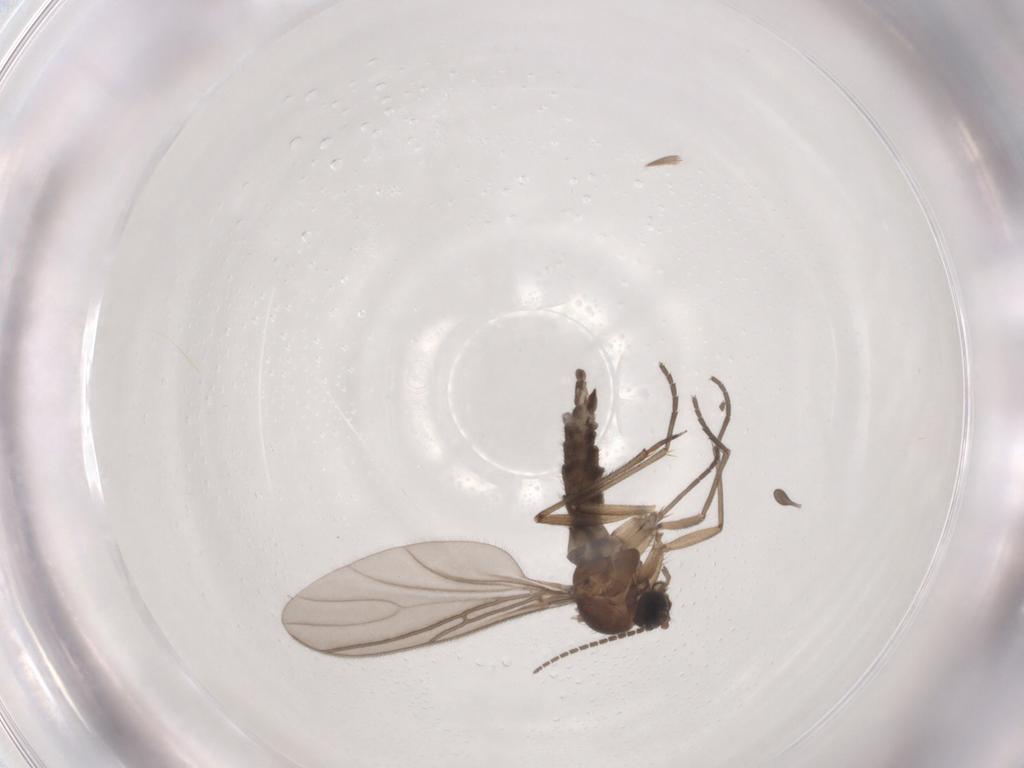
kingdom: Animalia
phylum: Arthropoda
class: Insecta
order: Diptera
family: Sciaridae
